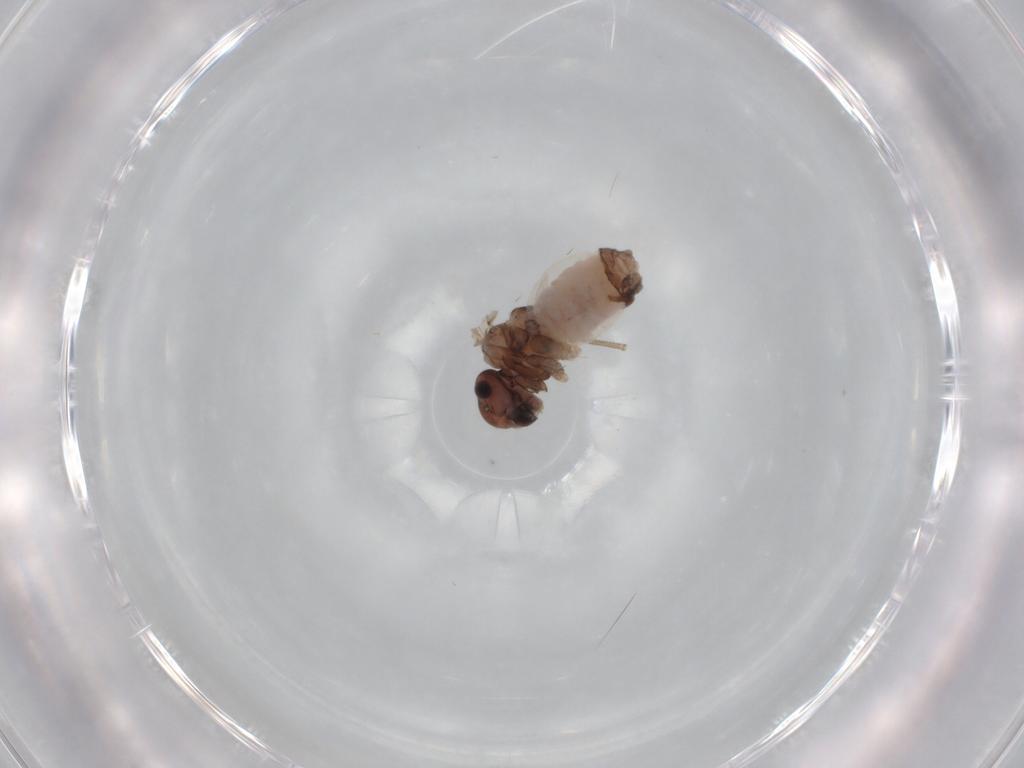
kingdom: Animalia
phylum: Arthropoda
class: Insecta
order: Psocodea
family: Peripsocidae
